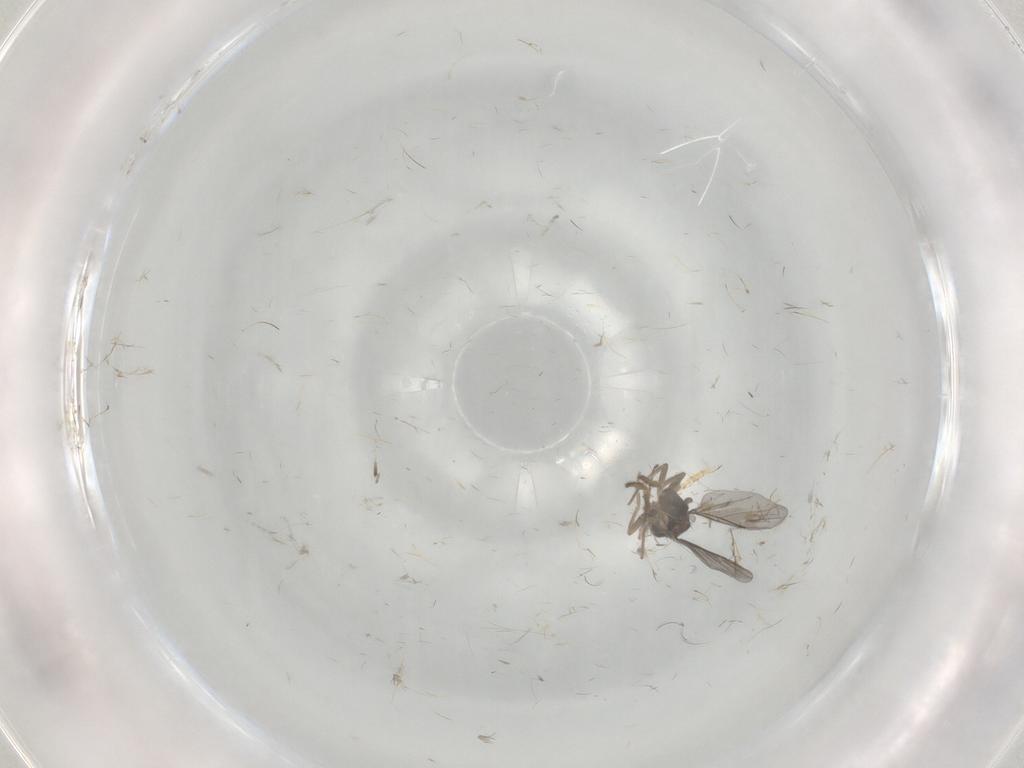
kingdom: Animalia
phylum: Arthropoda
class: Insecta
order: Diptera
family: Chironomidae
